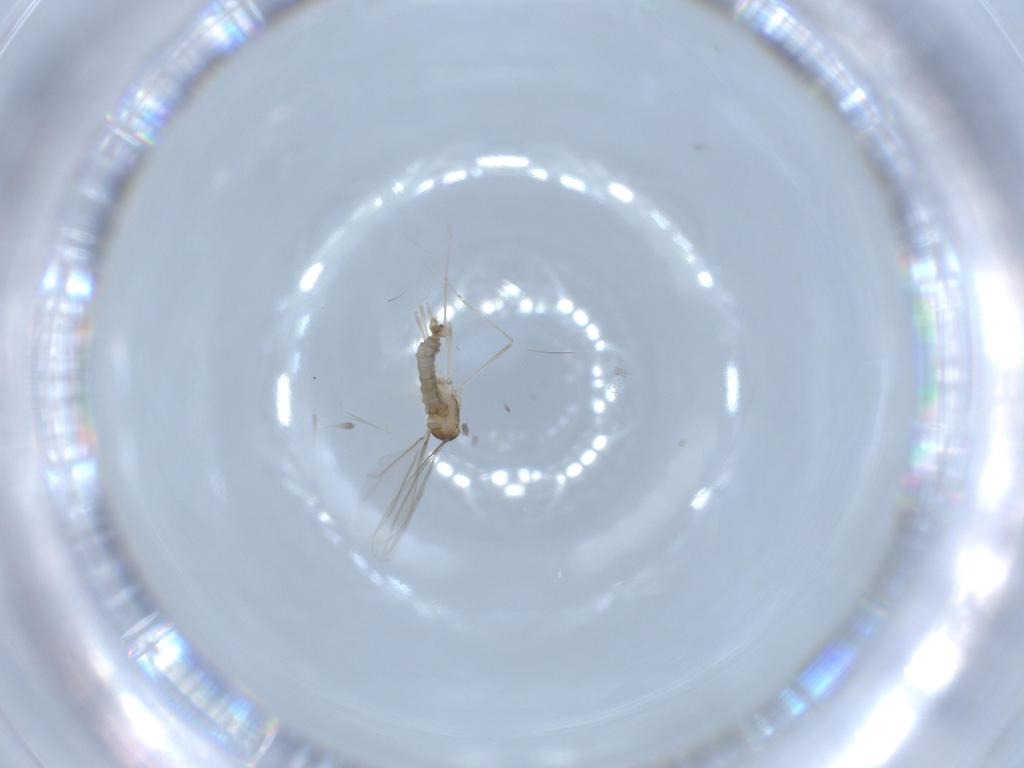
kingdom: Animalia
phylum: Arthropoda
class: Insecta
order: Diptera
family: Cecidomyiidae
